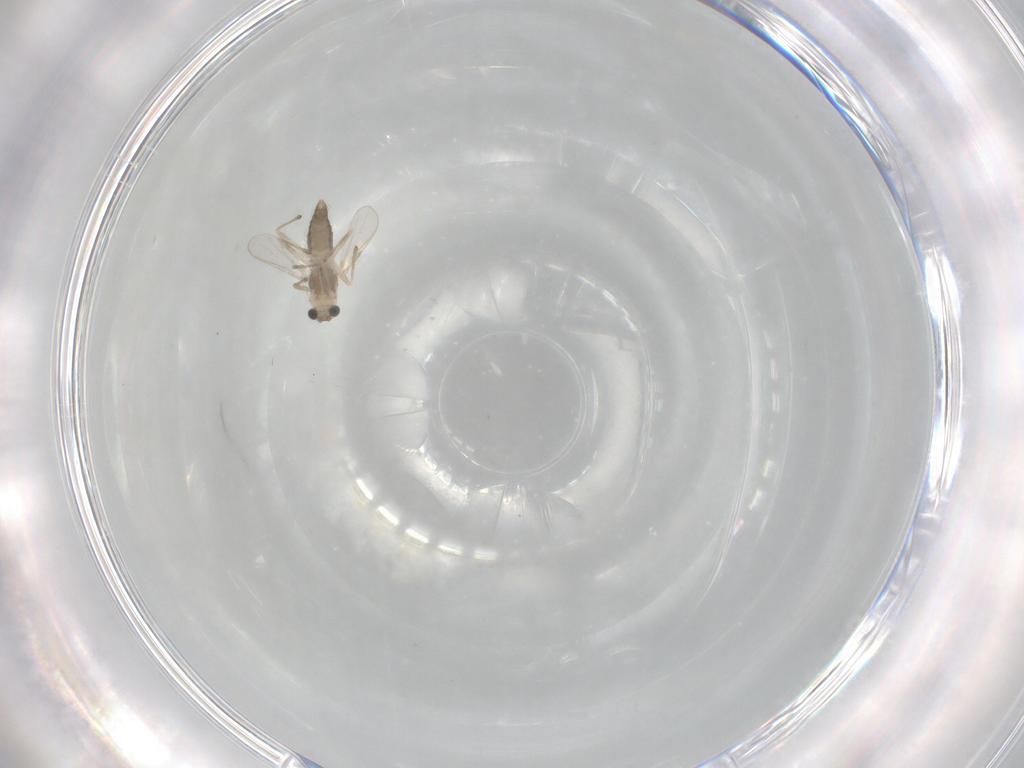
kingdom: Animalia
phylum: Arthropoda
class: Insecta
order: Diptera
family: Chironomidae
